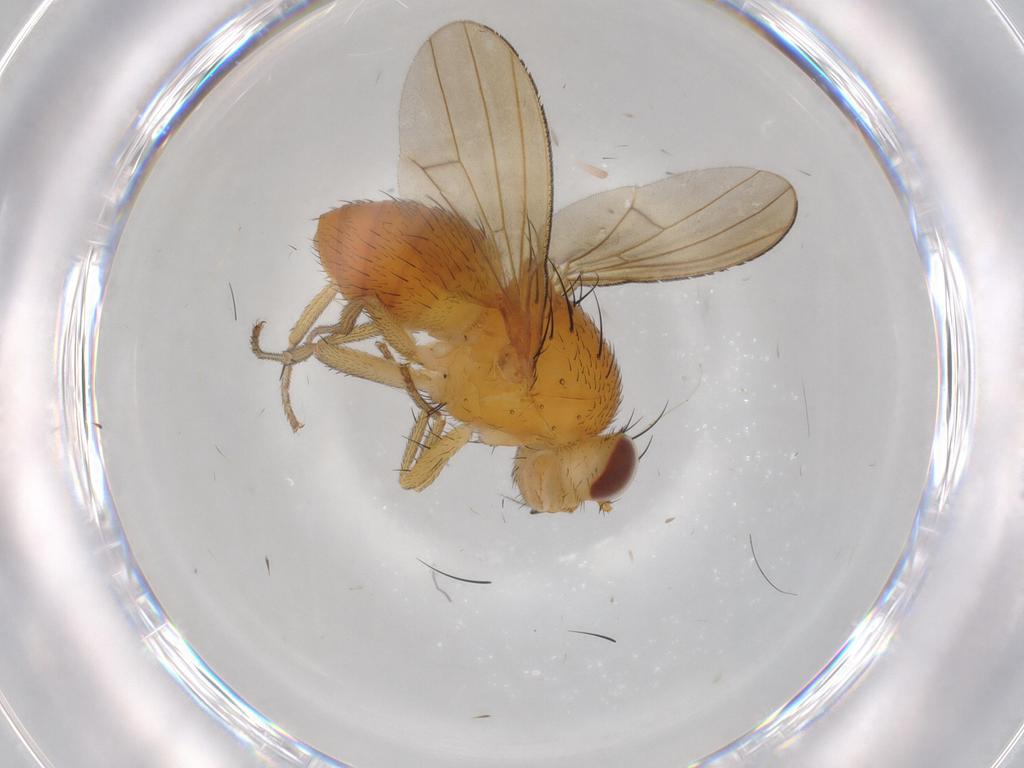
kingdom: Animalia
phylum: Arthropoda
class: Insecta
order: Diptera
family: Lauxaniidae
